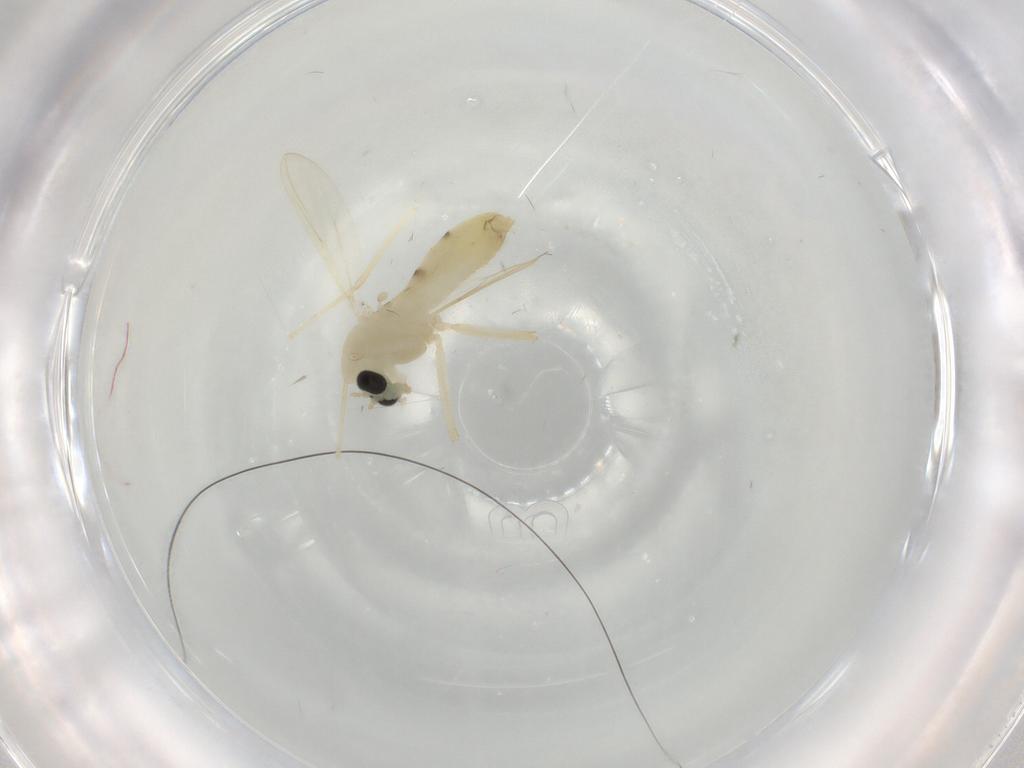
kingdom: Animalia
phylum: Arthropoda
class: Insecta
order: Diptera
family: Chironomidae
